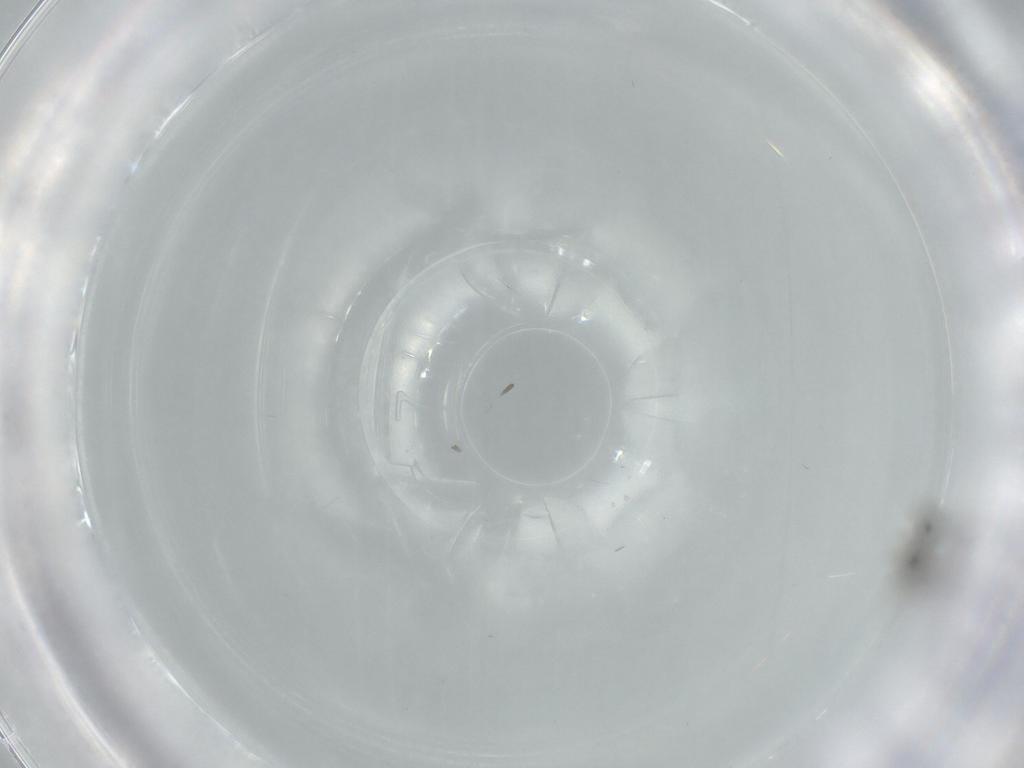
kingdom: Animalia
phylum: Arthropoda
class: Insecta
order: Diptera
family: Cecidomyiidae
